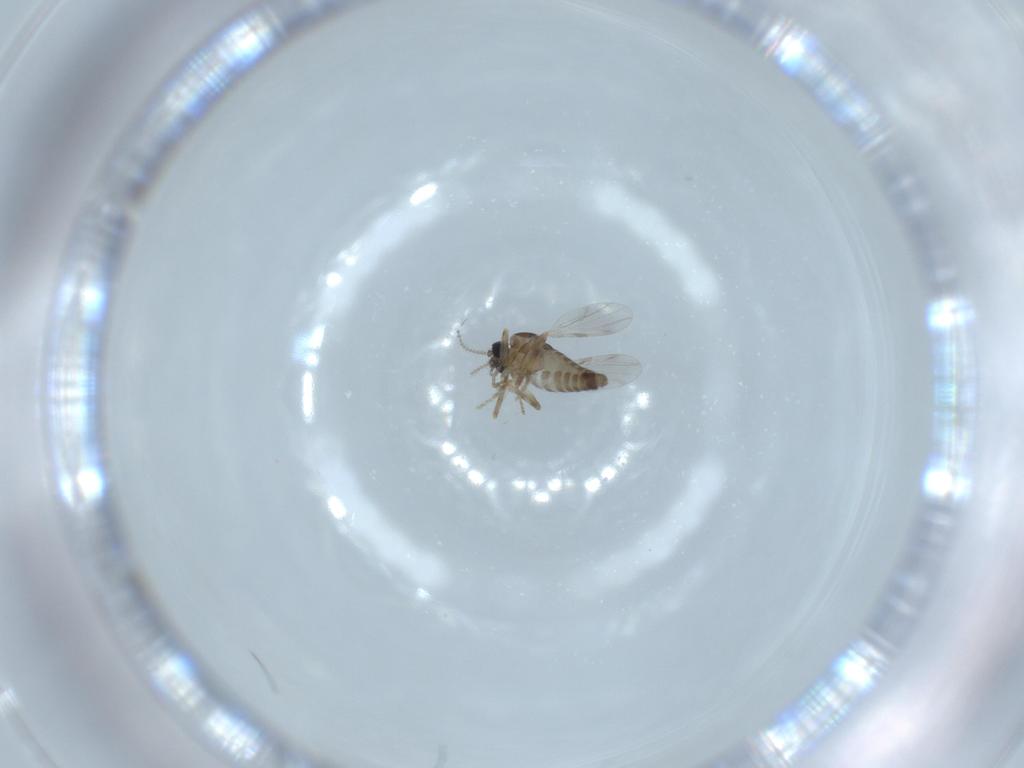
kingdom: Animalia
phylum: Arthropoda
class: Insecta
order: Diptera
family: Ceratopogonidae
